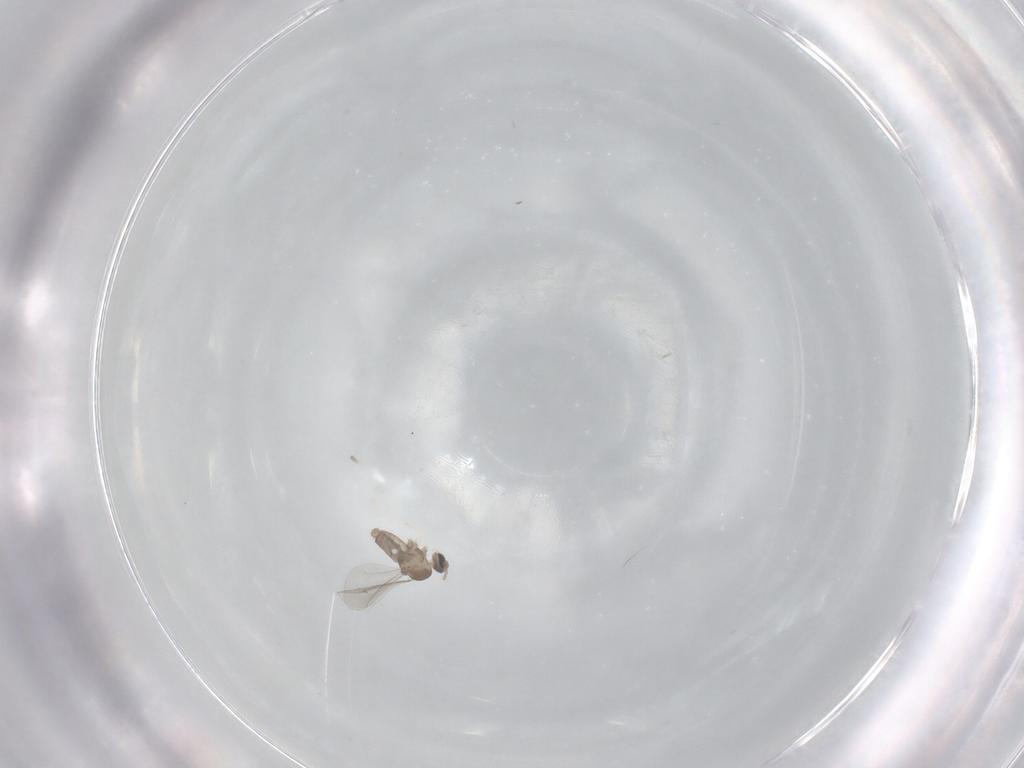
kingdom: Animalia
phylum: Arthropoda
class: Insecta
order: Diptera
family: Cecidomyiidae
